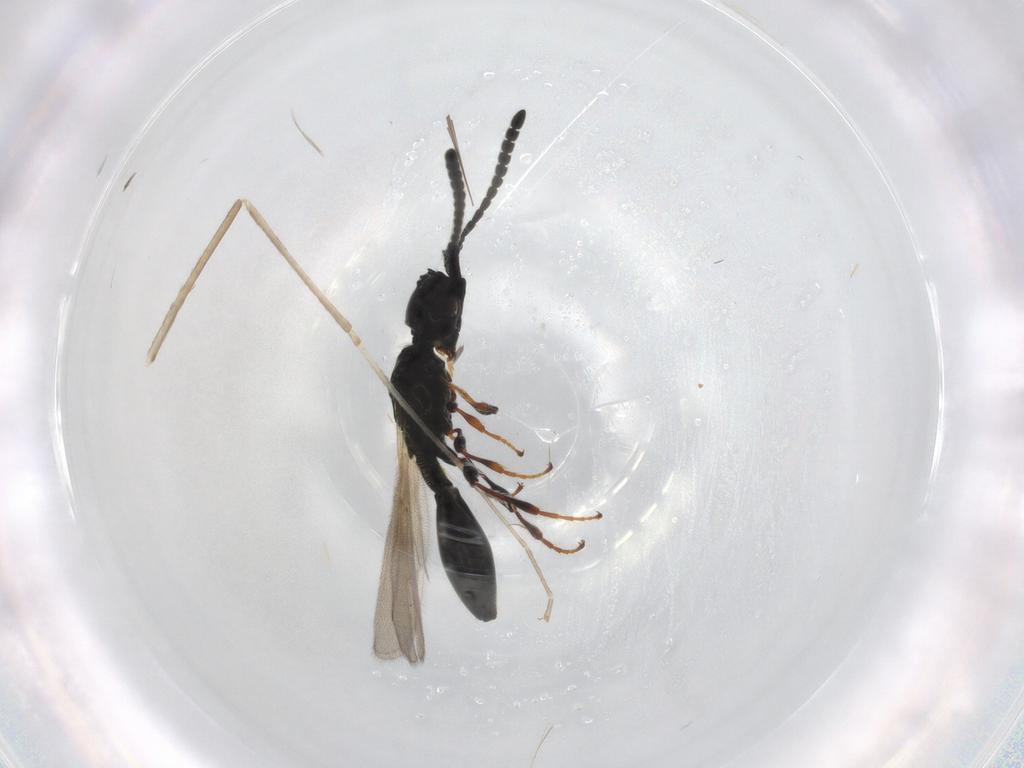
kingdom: Animalia
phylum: Arthropoda
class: Insecta
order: Hymenoptera
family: Diapriidae
